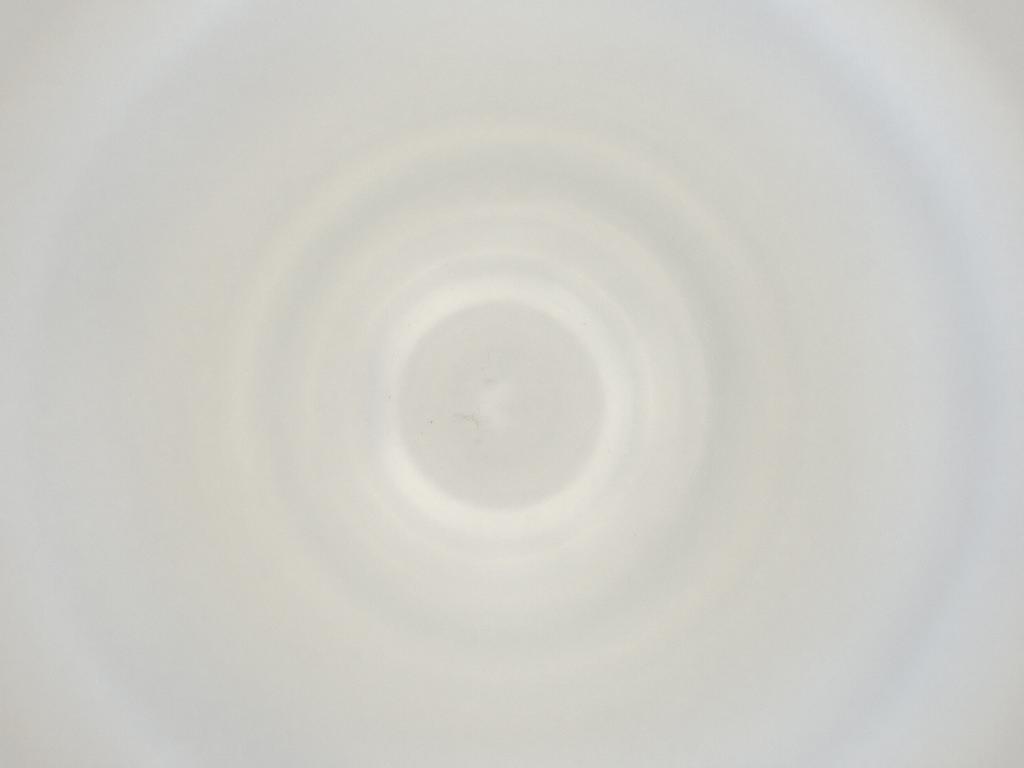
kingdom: Animalia
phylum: Arthropoda
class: Insecta
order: Diptera
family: Cecidomyiidae
